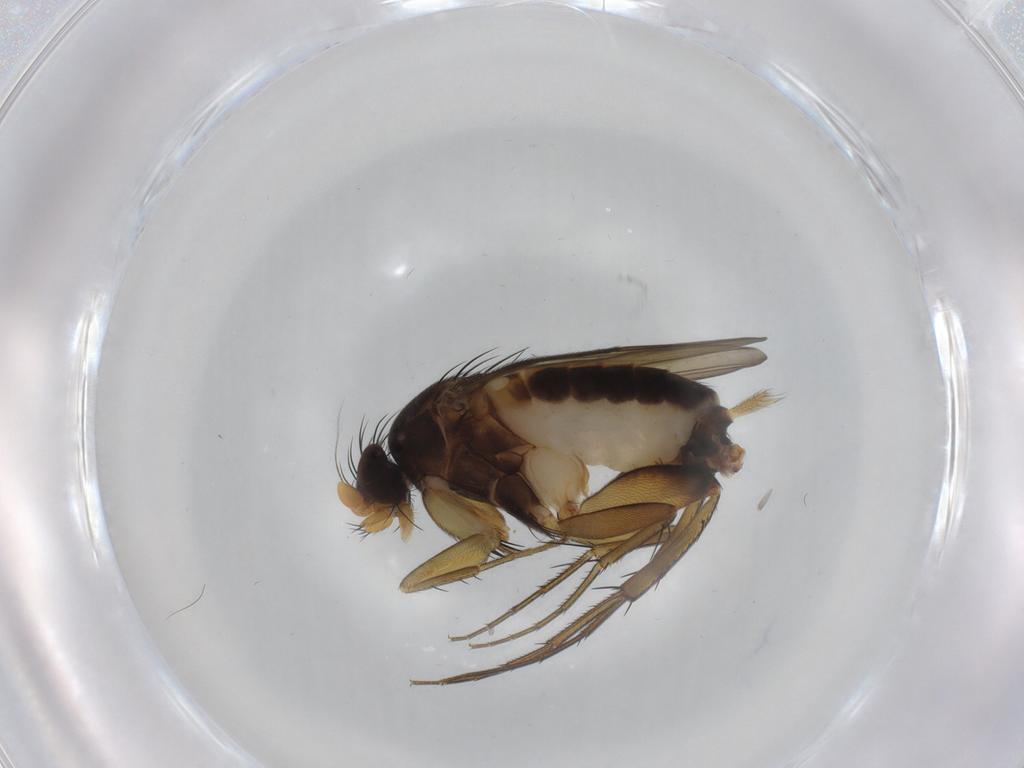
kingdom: Animalia
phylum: Arthropoda
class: Insecta
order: Diptera
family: Phoridae
